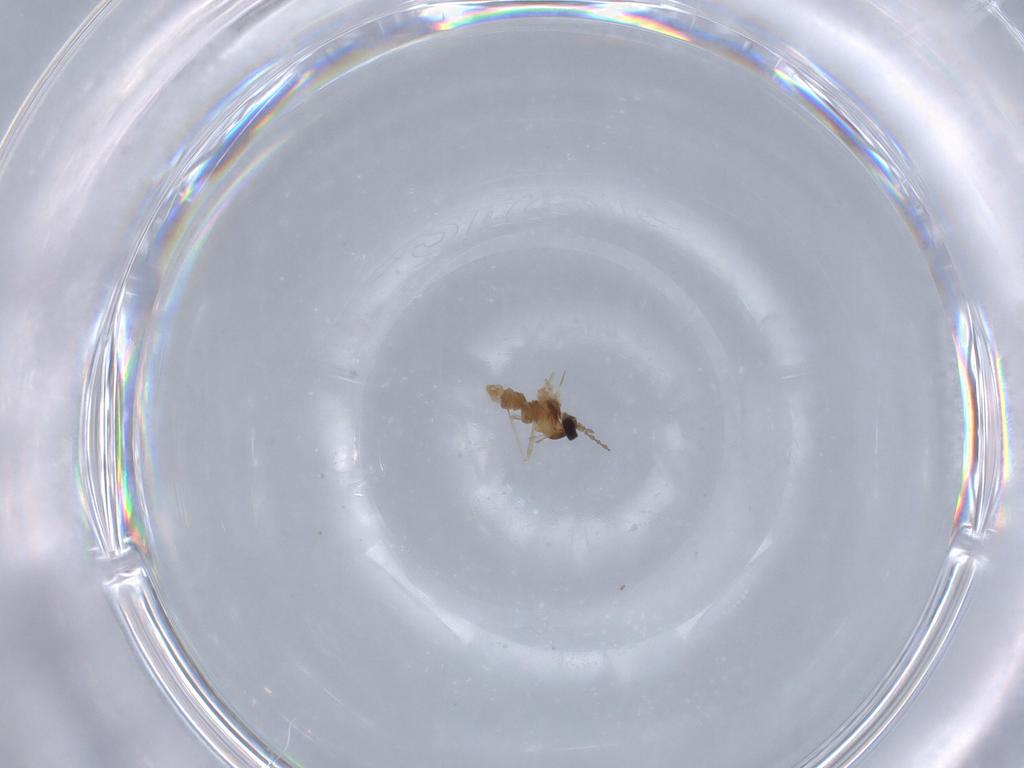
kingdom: Animalia
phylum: Arthropoda
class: Insecta
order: Diptera
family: Cecidomyiidae
